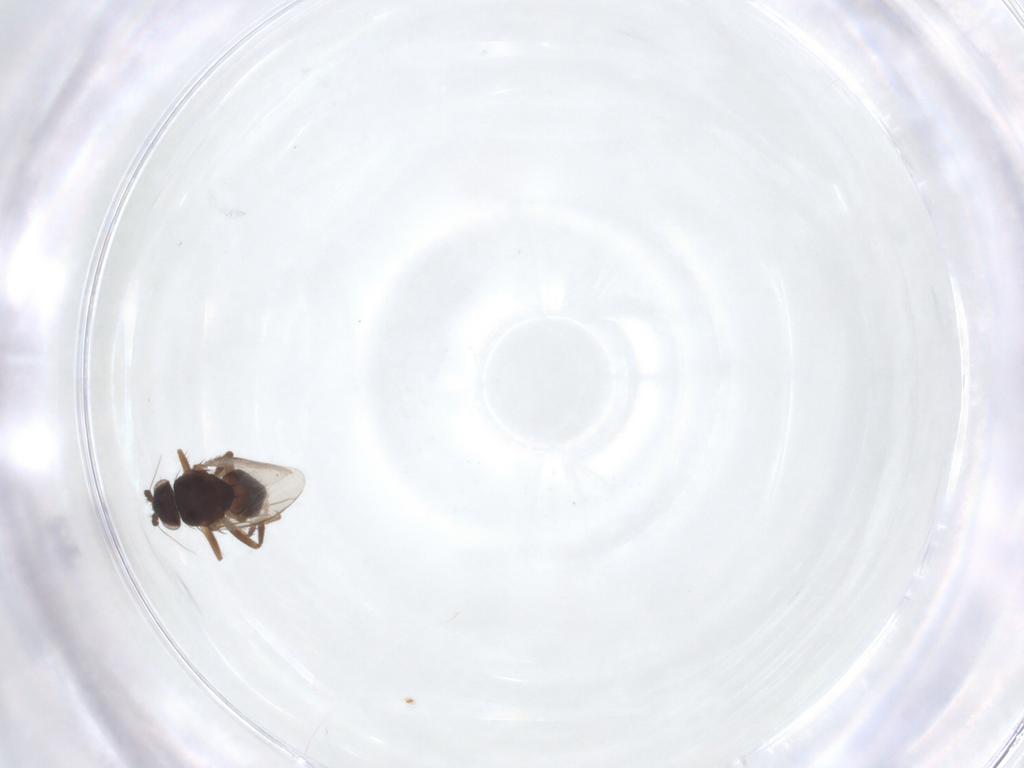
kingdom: Animalia
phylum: Arthropoda
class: Insecta
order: Diptera
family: Sphaeroceridae
